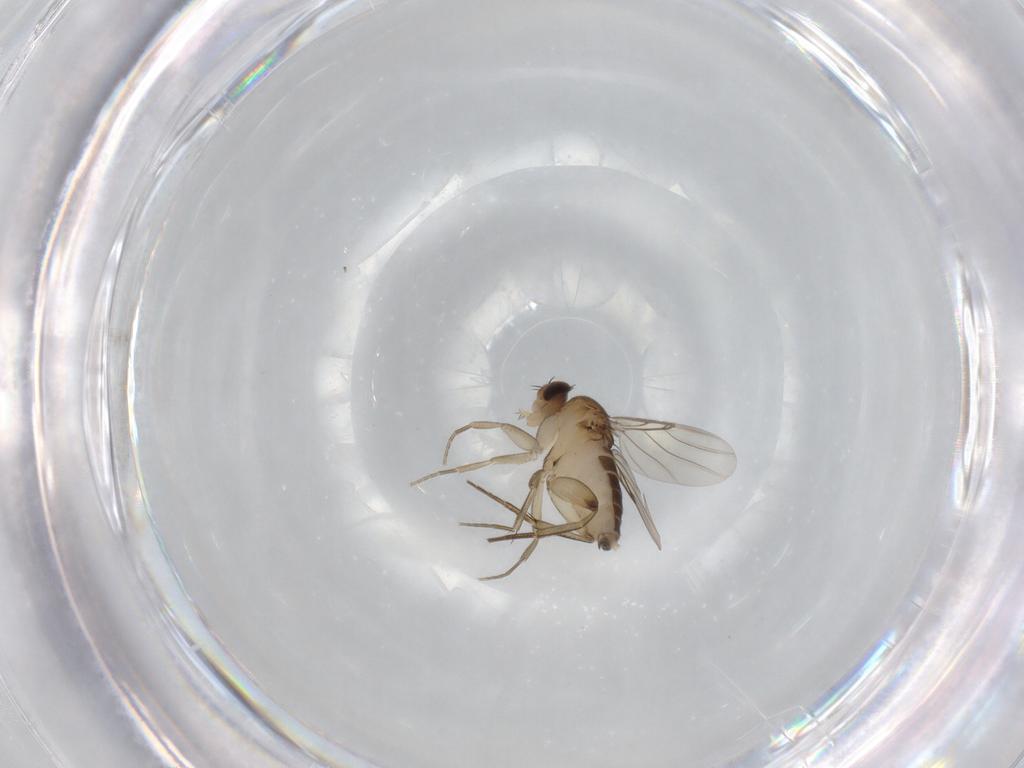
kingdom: Animalia
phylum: Arthropoda
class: Insecta
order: Diptera
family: Phoridae
